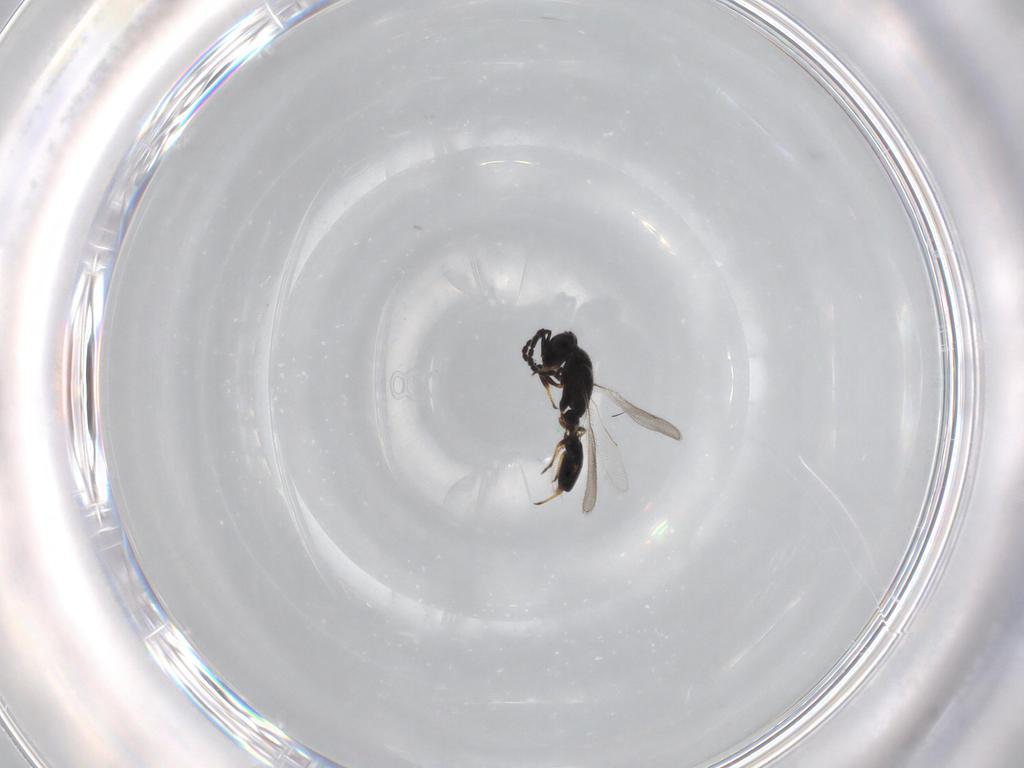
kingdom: Animalia
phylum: Arthropoda
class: Insecta
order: Hymenoptera
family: Spalangiidae
